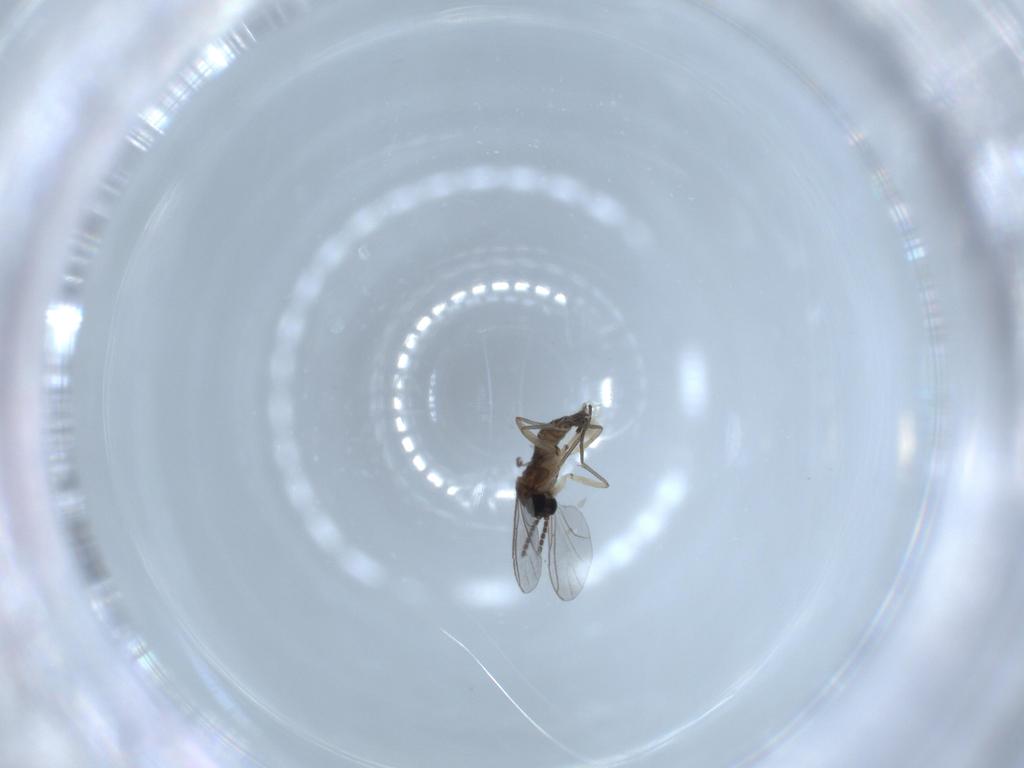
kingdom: Animalia
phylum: Arthropoda
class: Insecta
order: Diptera
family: Sciaridae
